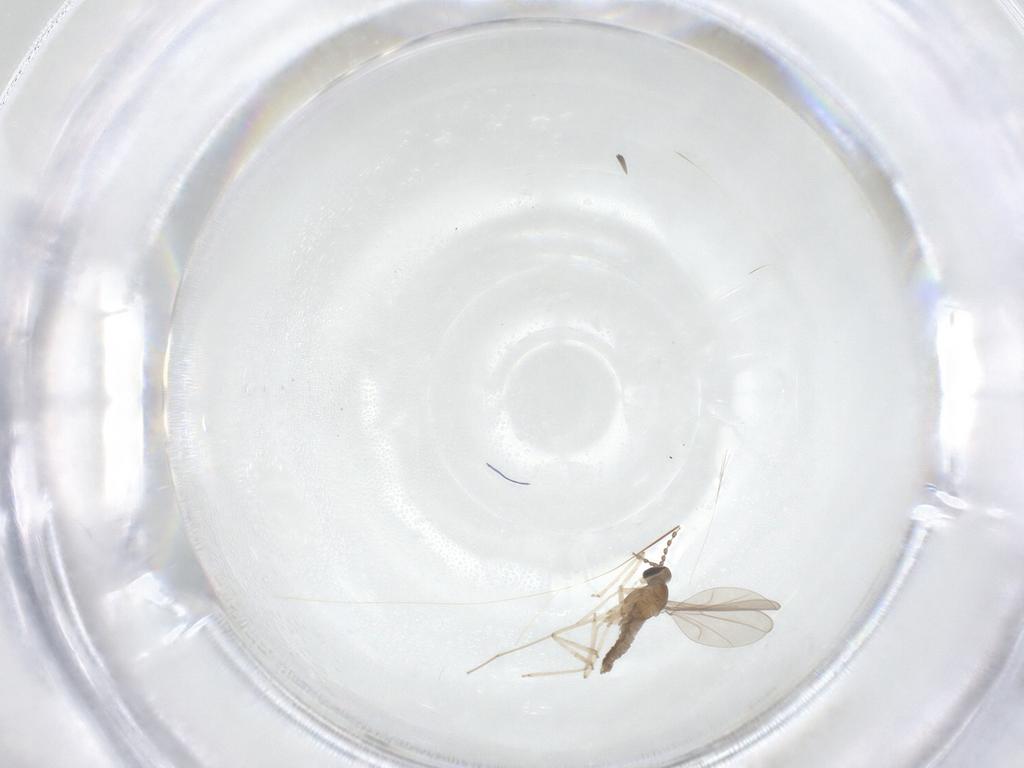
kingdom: Animalia
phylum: Arthropoda
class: Insecta
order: Diptera
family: Cecidomyiidae
